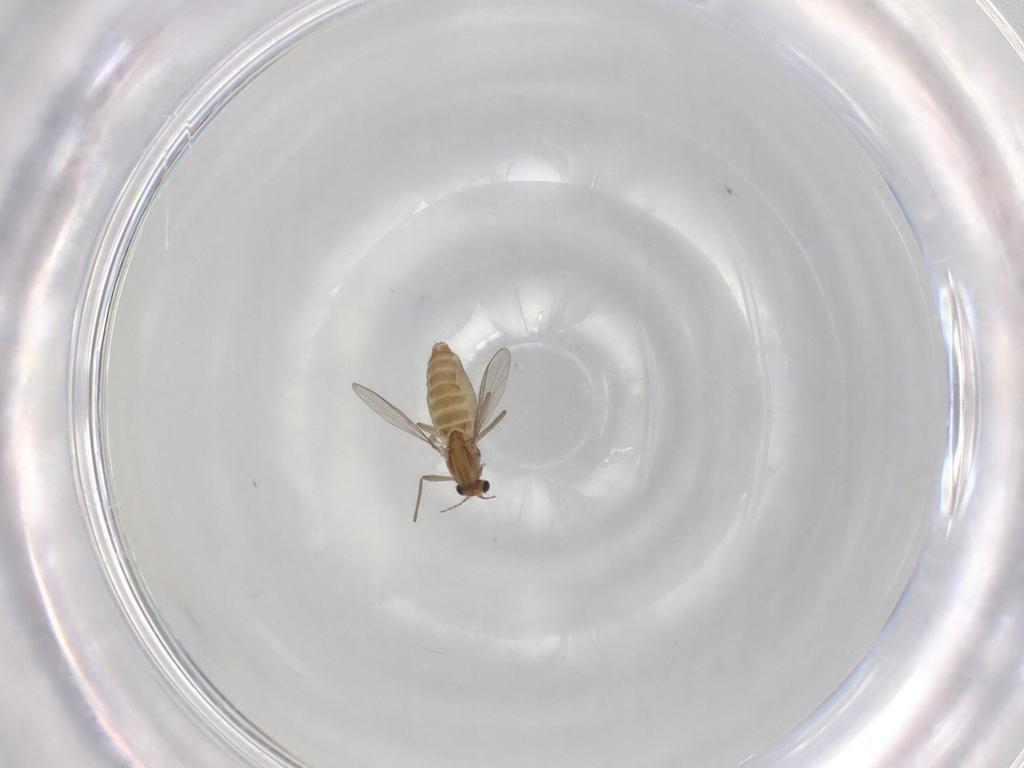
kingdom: Animalia
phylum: Arthropoda
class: Insecta
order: Diptera
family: Chironomidae
